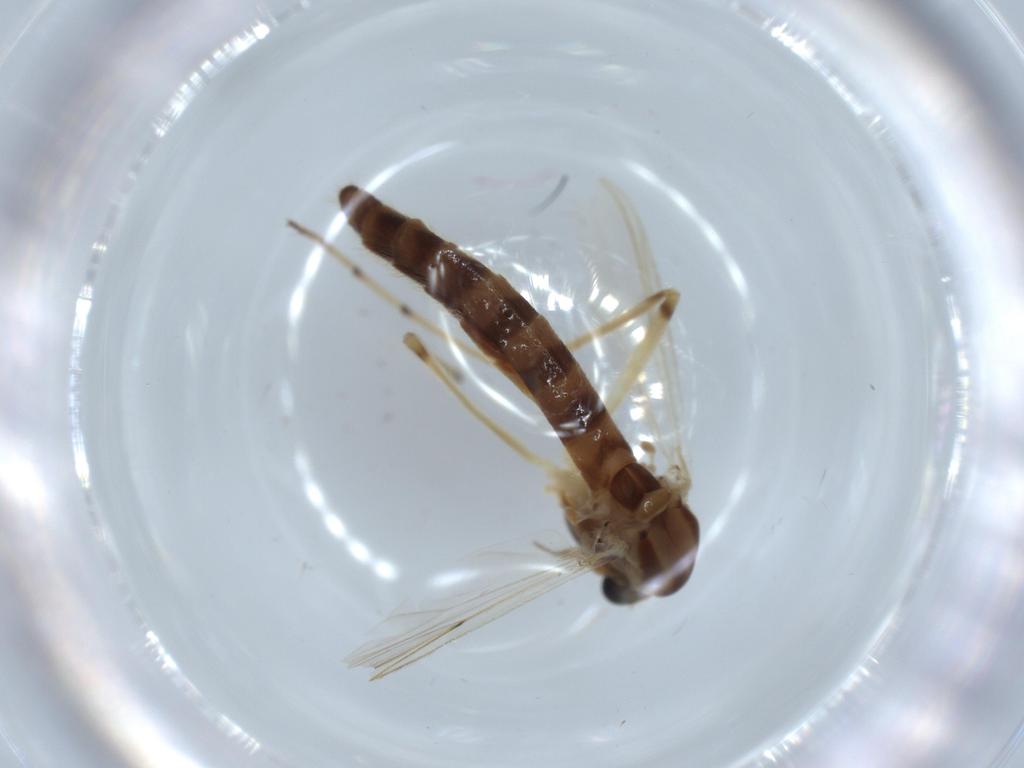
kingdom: Animalia
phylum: Arthropoda
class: Insecta
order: Diptera
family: Chironomidae
